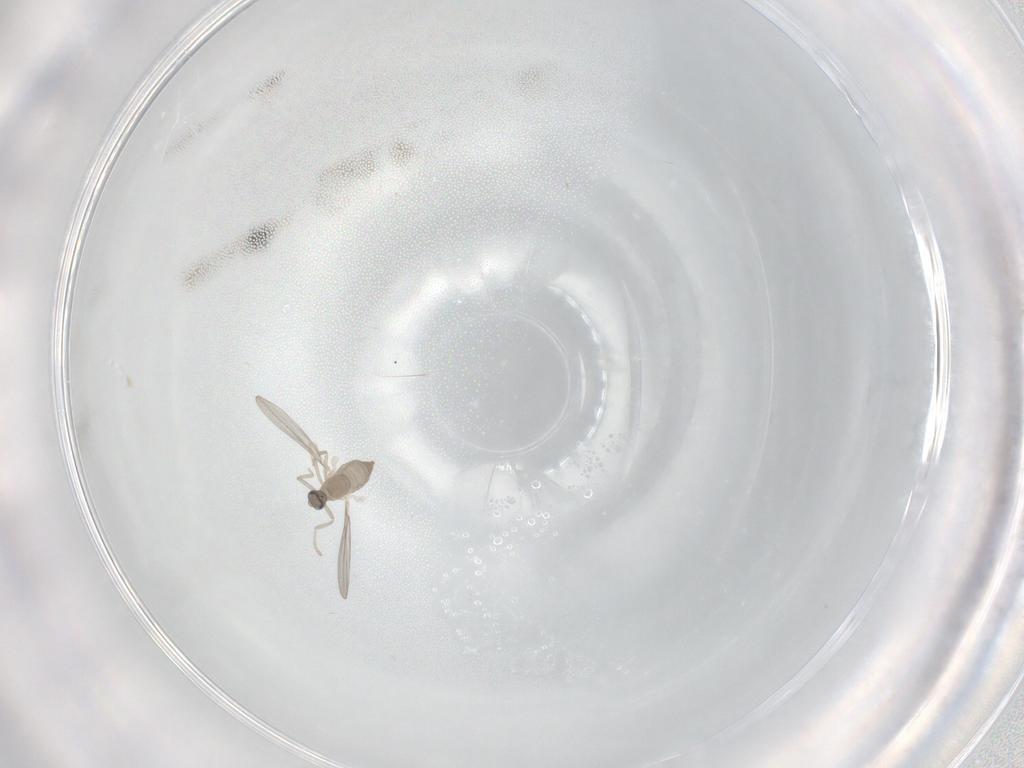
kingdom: Animalia
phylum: Arthropoda
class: Insecta
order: Diptera
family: Cecidomyiidae
